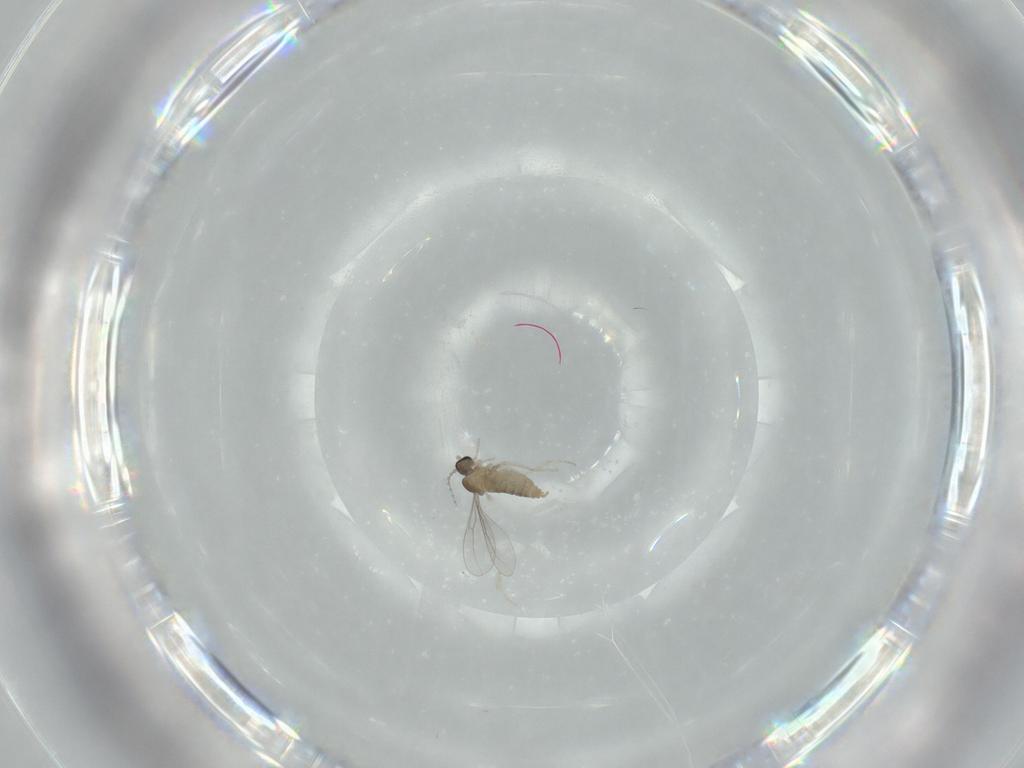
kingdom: Animalia
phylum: Arthropoda
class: Insecta
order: Diptera
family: Cecidomyiidae
